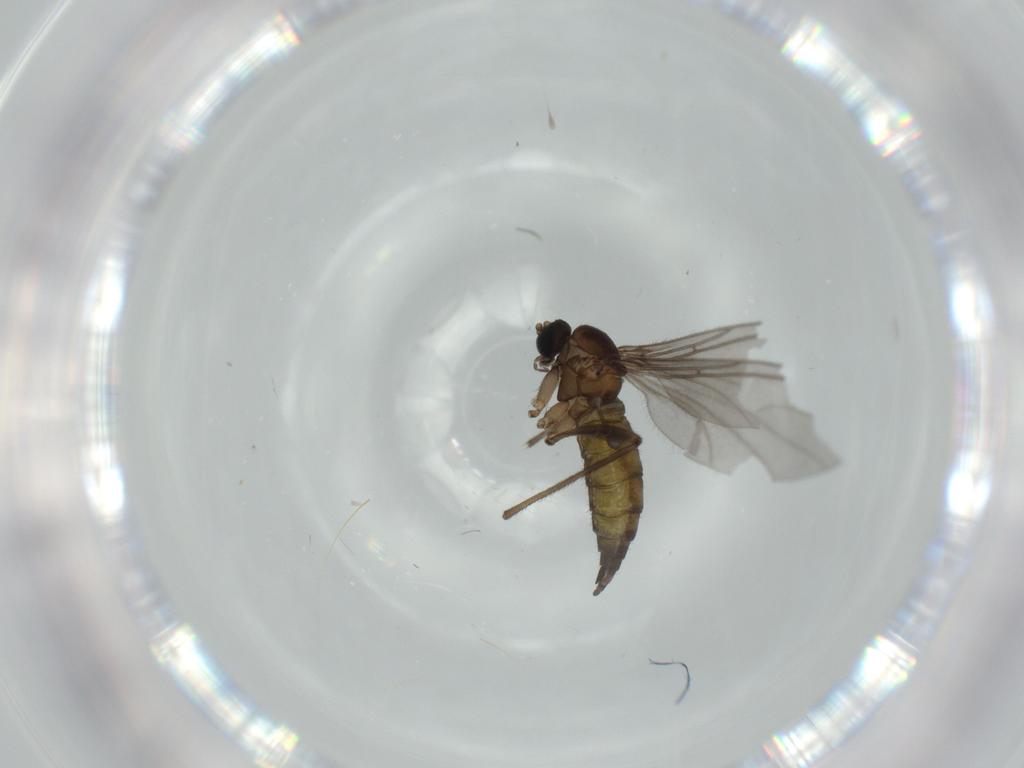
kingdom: Animalia
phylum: Arthropoda
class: Insecta
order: Diptera
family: Sciaridae
